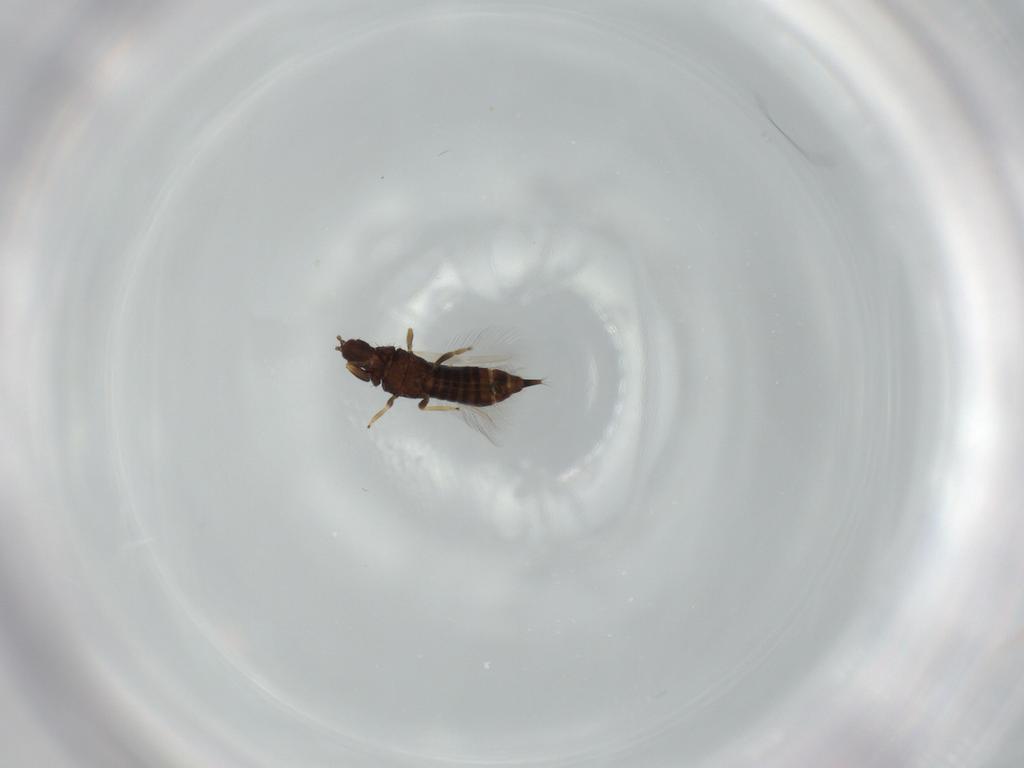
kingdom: Animalia
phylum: Arthropoda
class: Insecta
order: Thysanoptera
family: Phlaeothripidae
